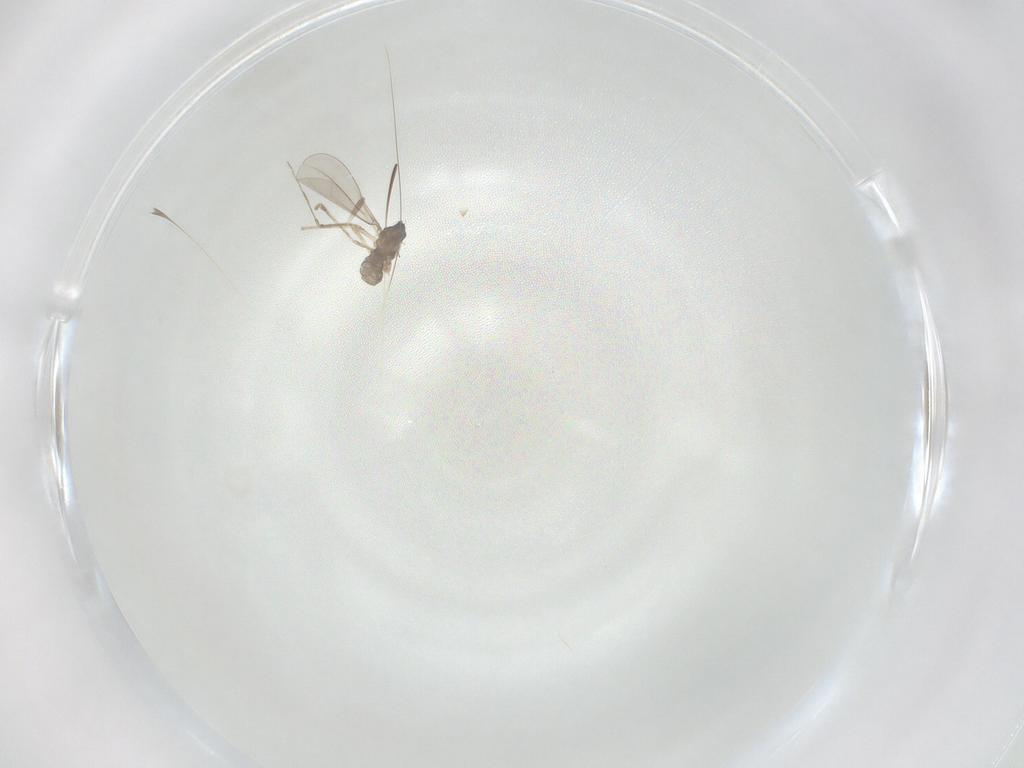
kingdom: Animalia
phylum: Arthropoda
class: Insecta
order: Diptera
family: Cecidomyiidae
